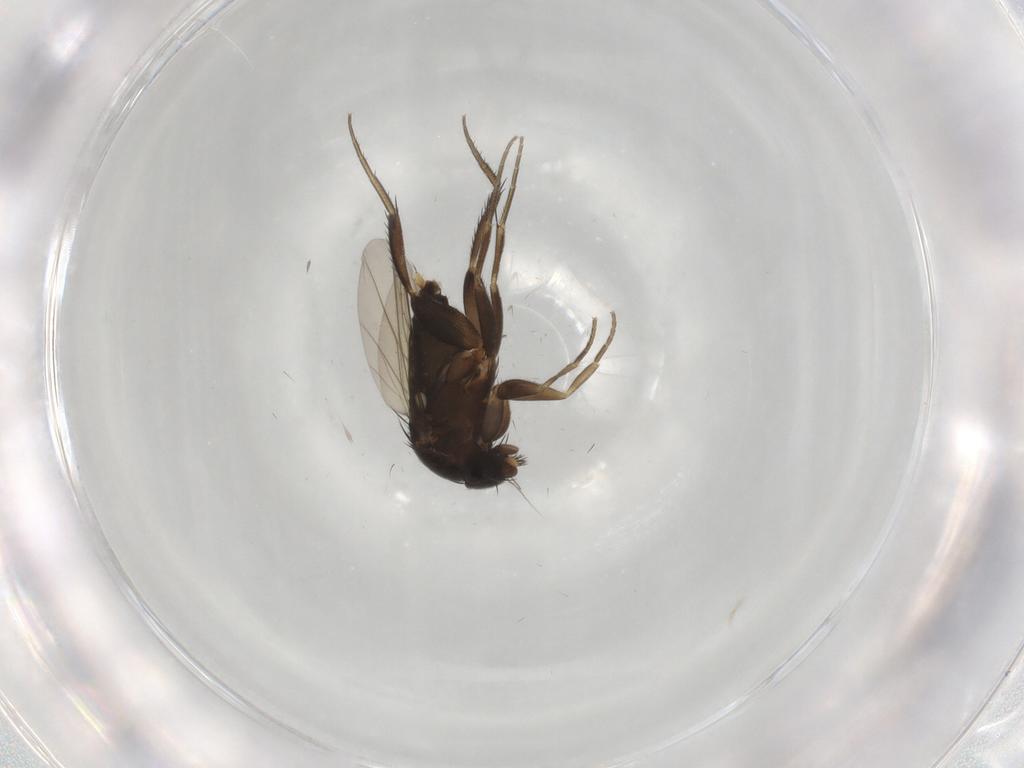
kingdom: Animalia
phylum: Arthropoda
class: Insecta
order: Diptera
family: Phoridae
